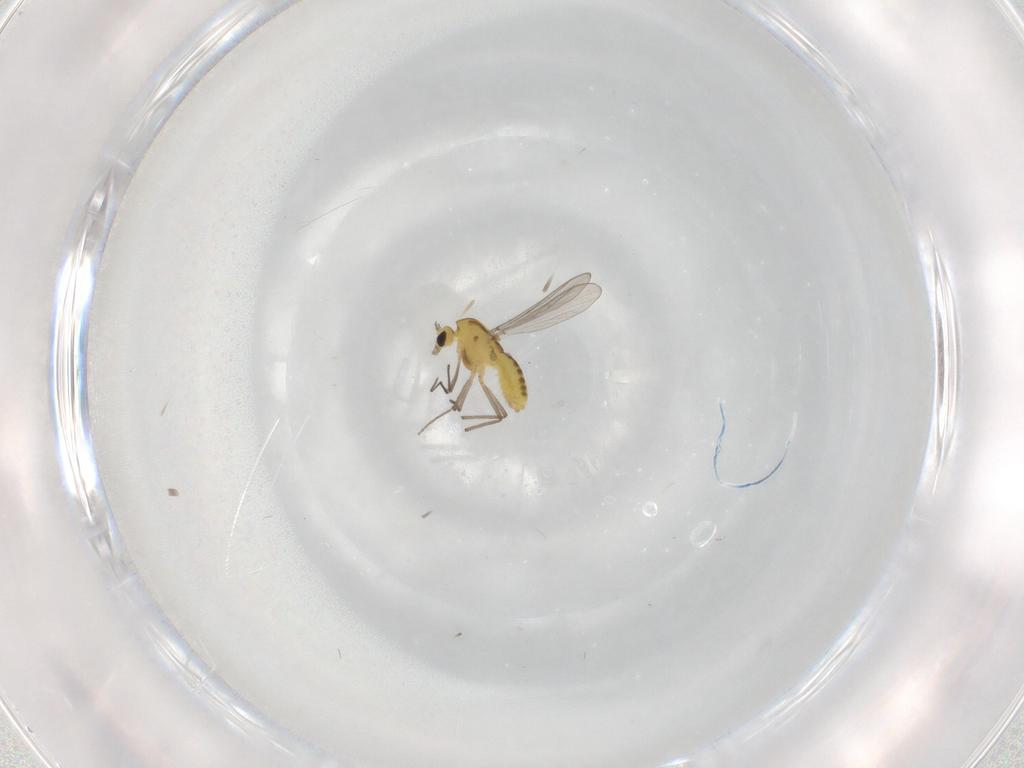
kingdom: Animalia
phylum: Arthropoda
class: Insecta
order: Diptera
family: Chironomidae
